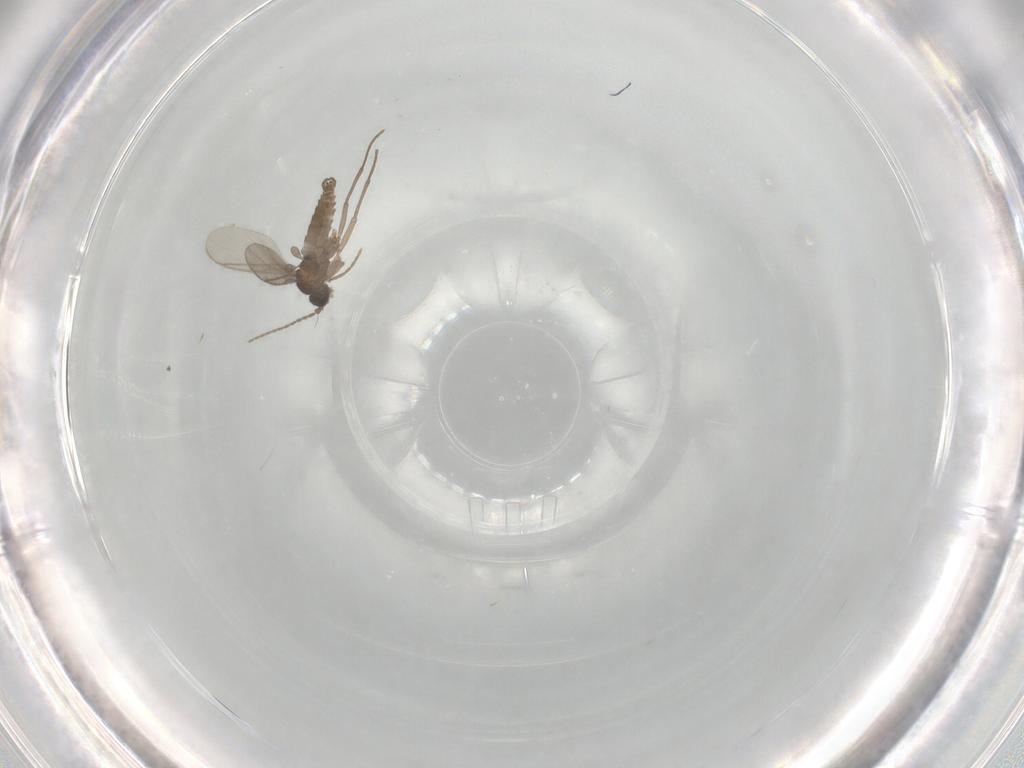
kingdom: Animalia
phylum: Arthropoda
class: Insecta
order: Diptera
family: Sciaridae
